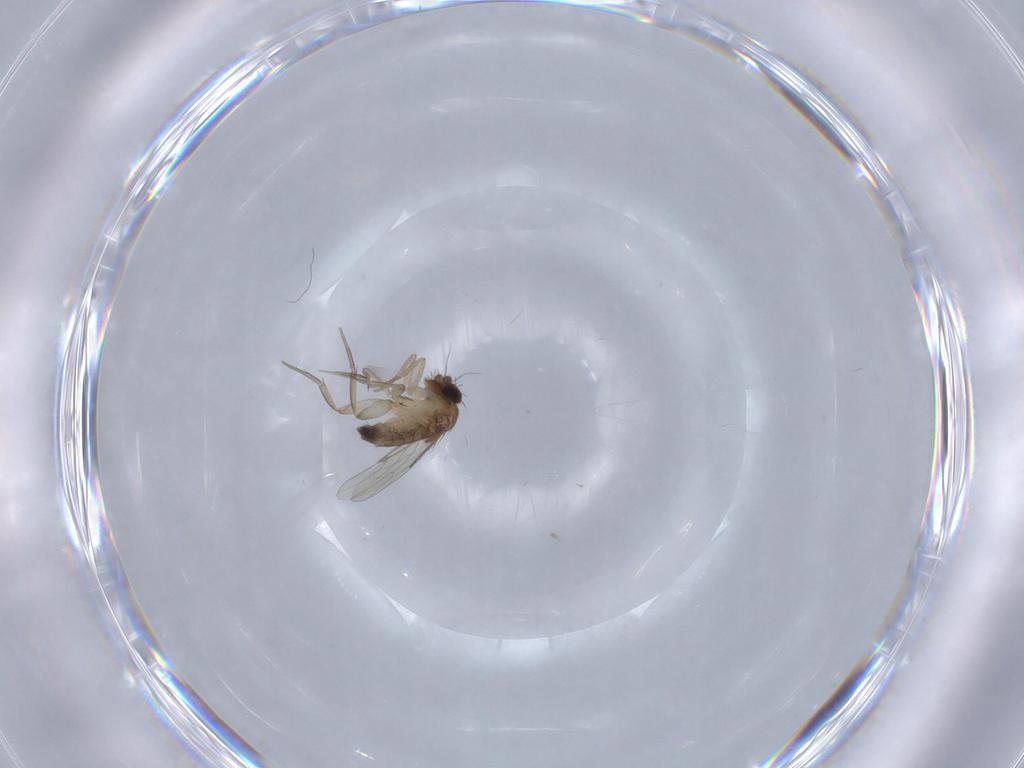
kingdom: Animalia
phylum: Arthropoda
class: Insecta
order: Diptera
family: Phoridae
